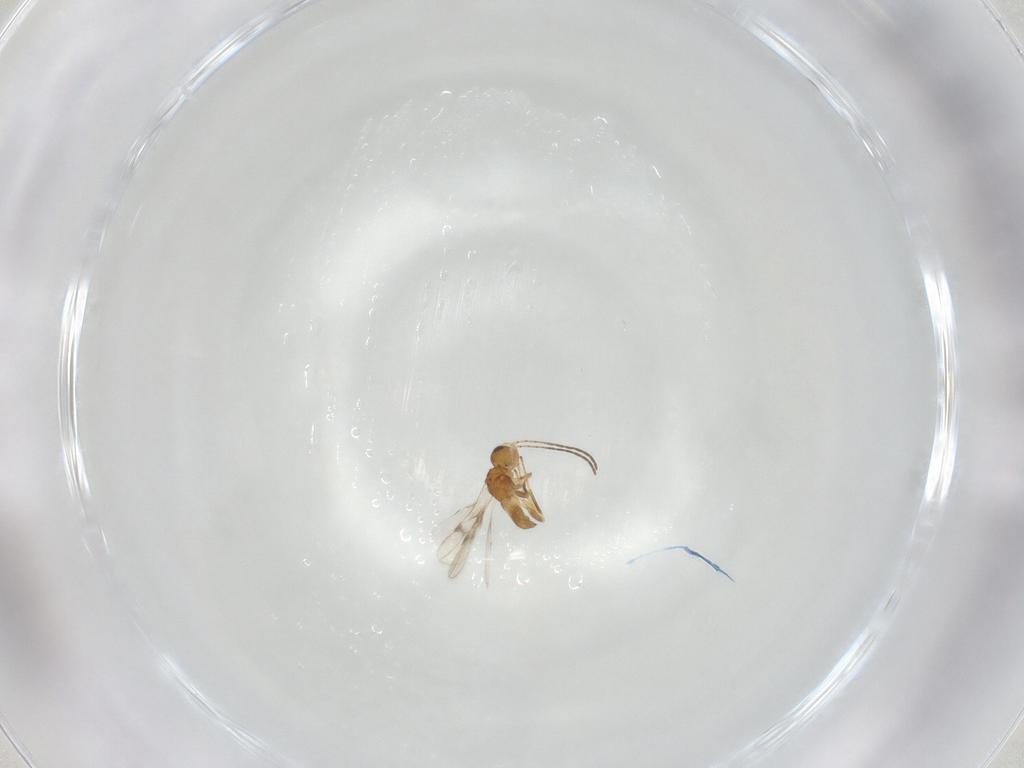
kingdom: Animalia
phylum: Arthropoda
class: Insecta
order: Hymenoptera
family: Braconidae
